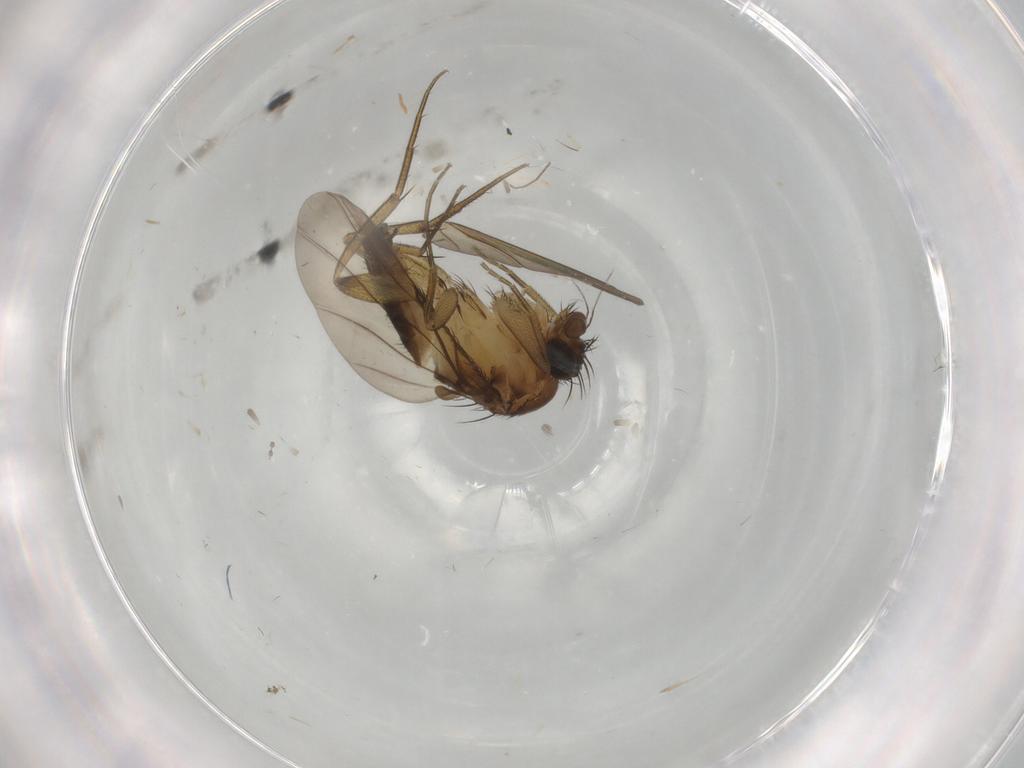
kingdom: Animalia
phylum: Arthropoda
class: Insecta
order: Diptera
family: Phoridae
